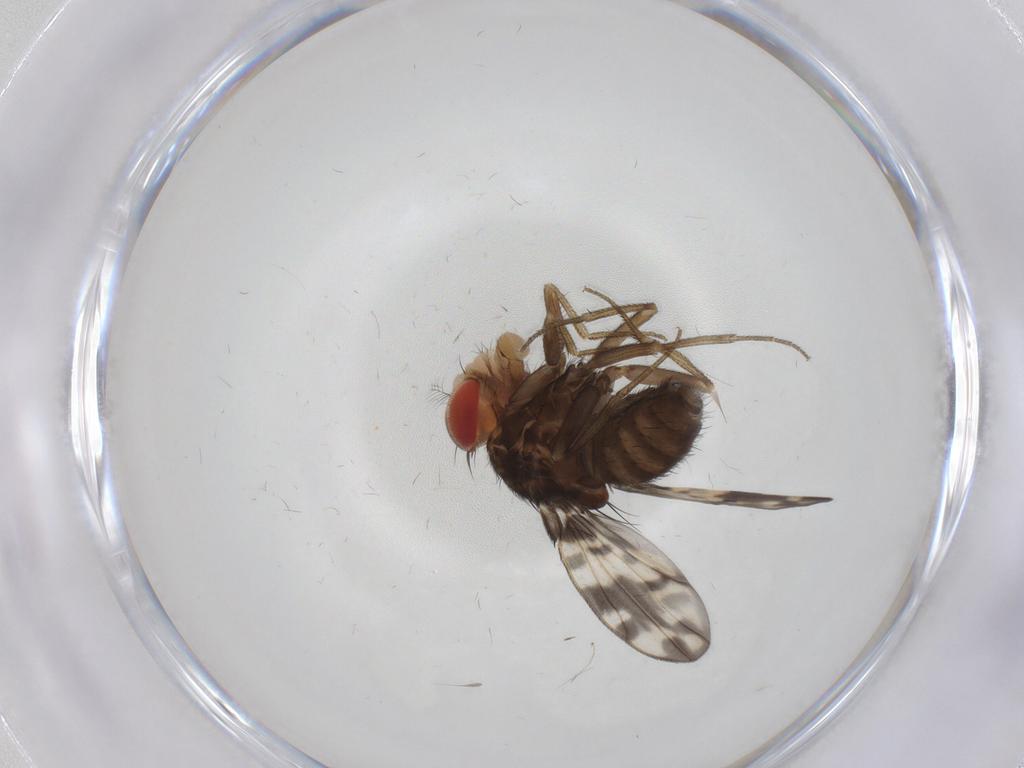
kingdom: Animalia
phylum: Arthropoda
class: Insecta
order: Diptera
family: Drosophilidae
